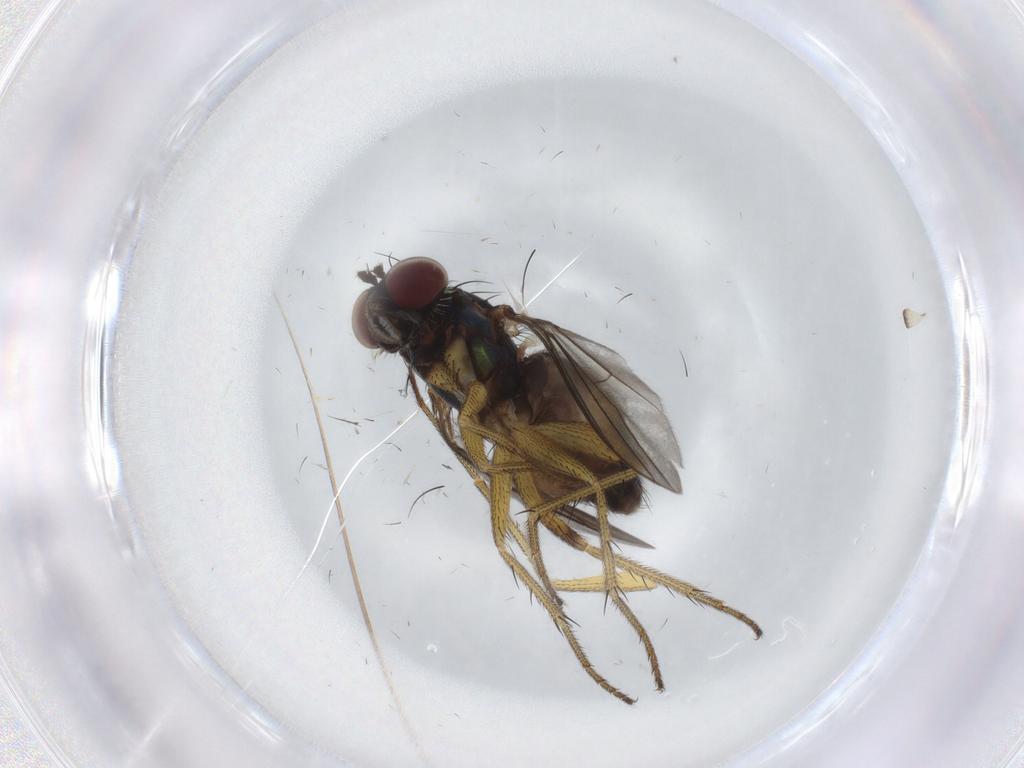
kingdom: Animalia
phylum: Arthropoda
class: Insecta
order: Diptera
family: Dolichopodidae
